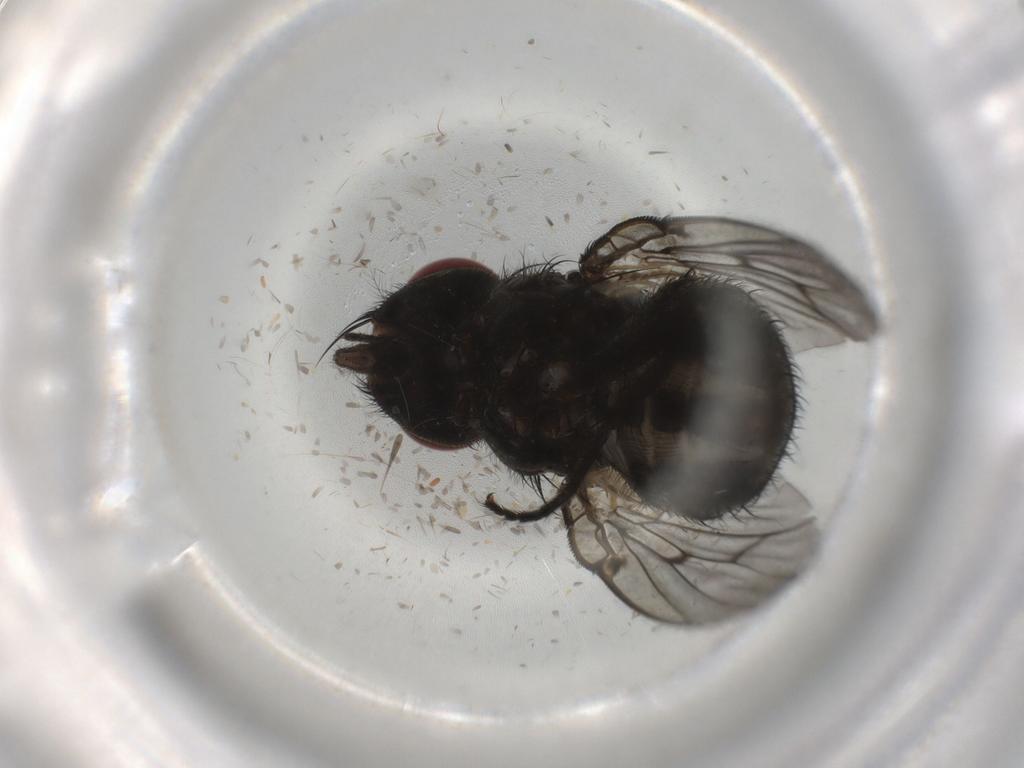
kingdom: Animalia
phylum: Arthropoda
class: Insecta
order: Diptera
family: Muscidae
